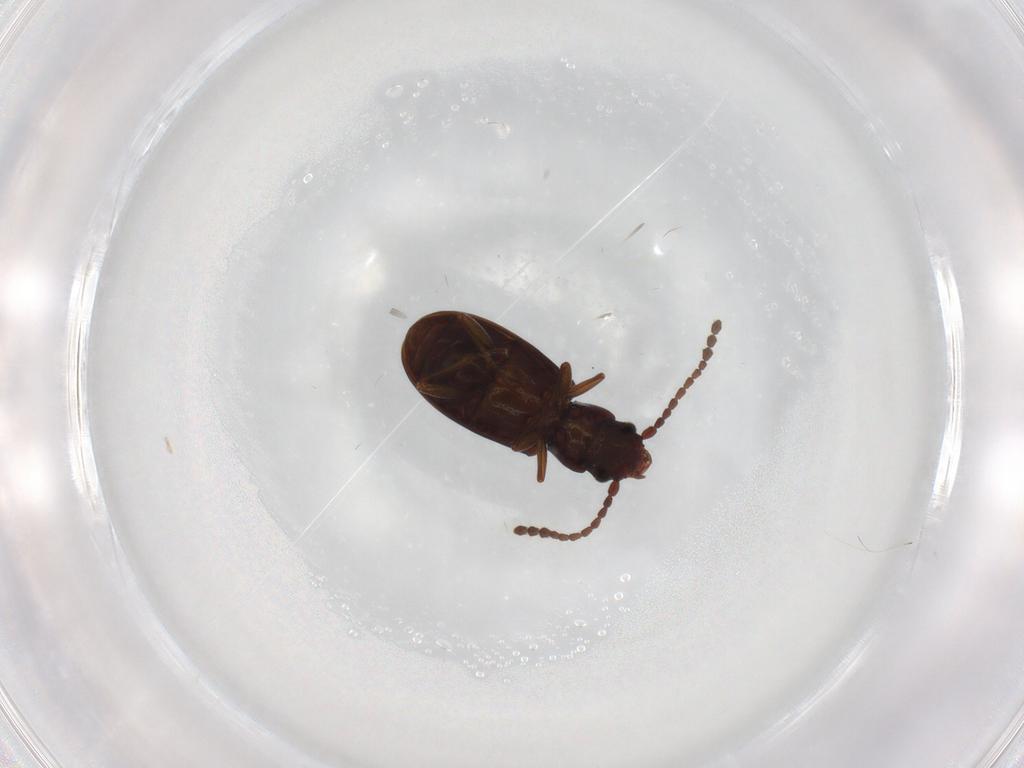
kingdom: Animalia
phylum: Arthropoda
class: Insecta
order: Coleoptera
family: Laemophloeidae
